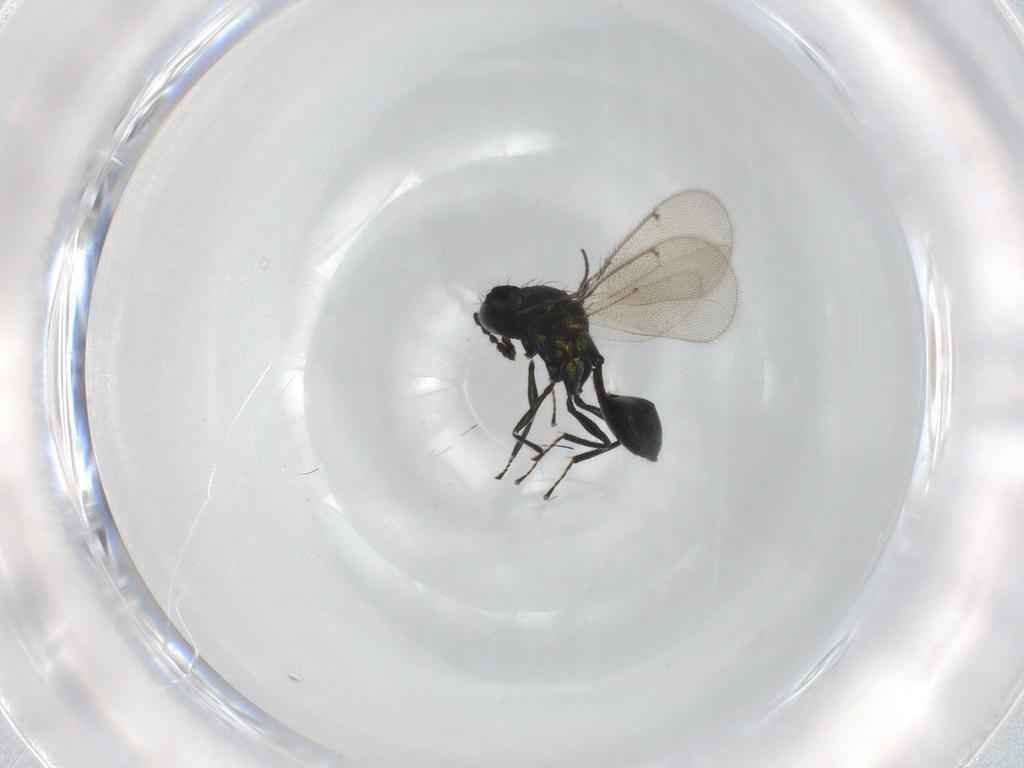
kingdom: Animalia
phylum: Arthropoda
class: Insecta
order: Hymenoptera
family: Eulophidae
